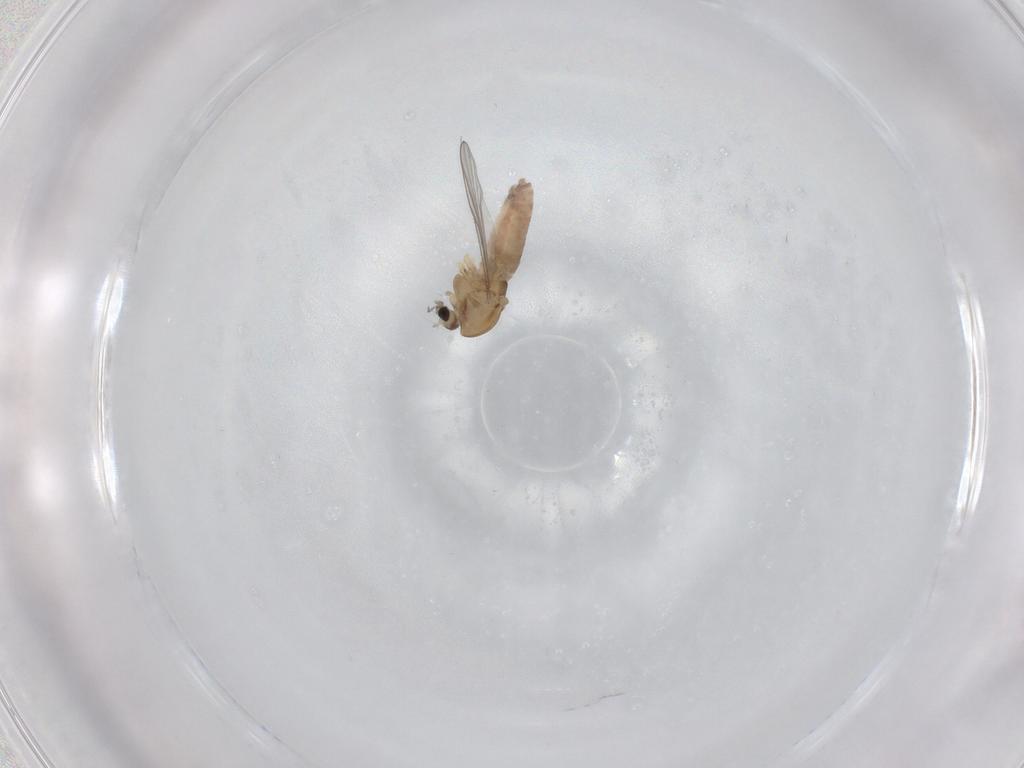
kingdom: Animalia
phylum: Arthropoda
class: Insecta
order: Diptera
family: Chironomidae
